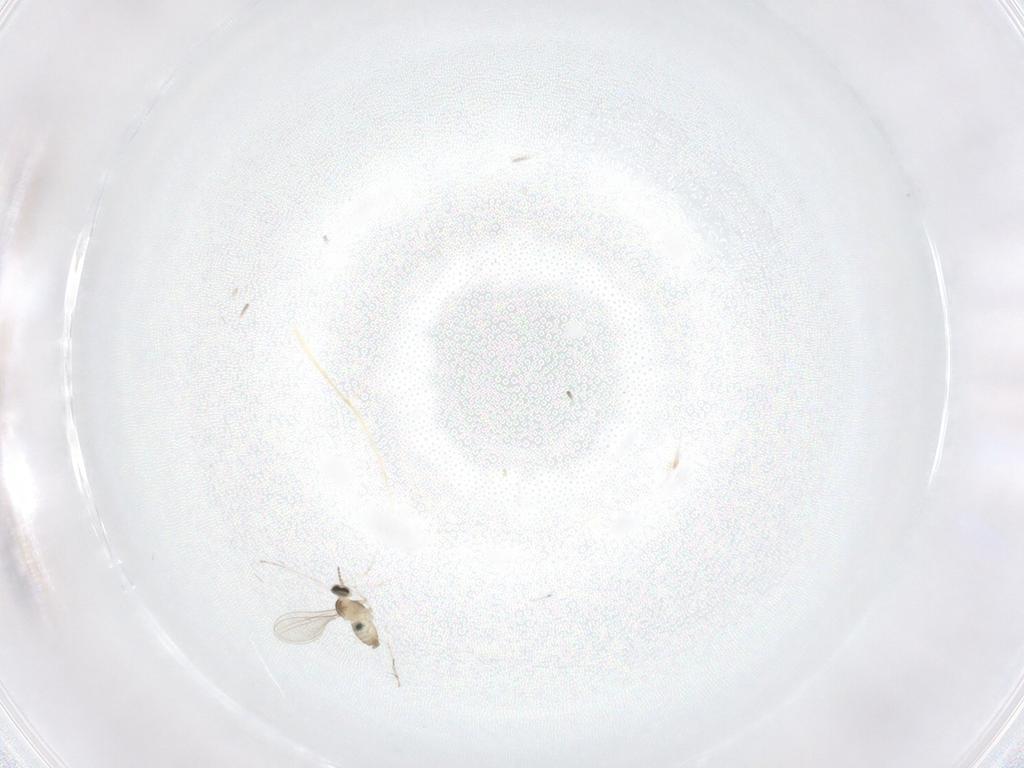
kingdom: Animalia
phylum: Arthropoda
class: Insecta
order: Diptera
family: Cecidomyiidae
